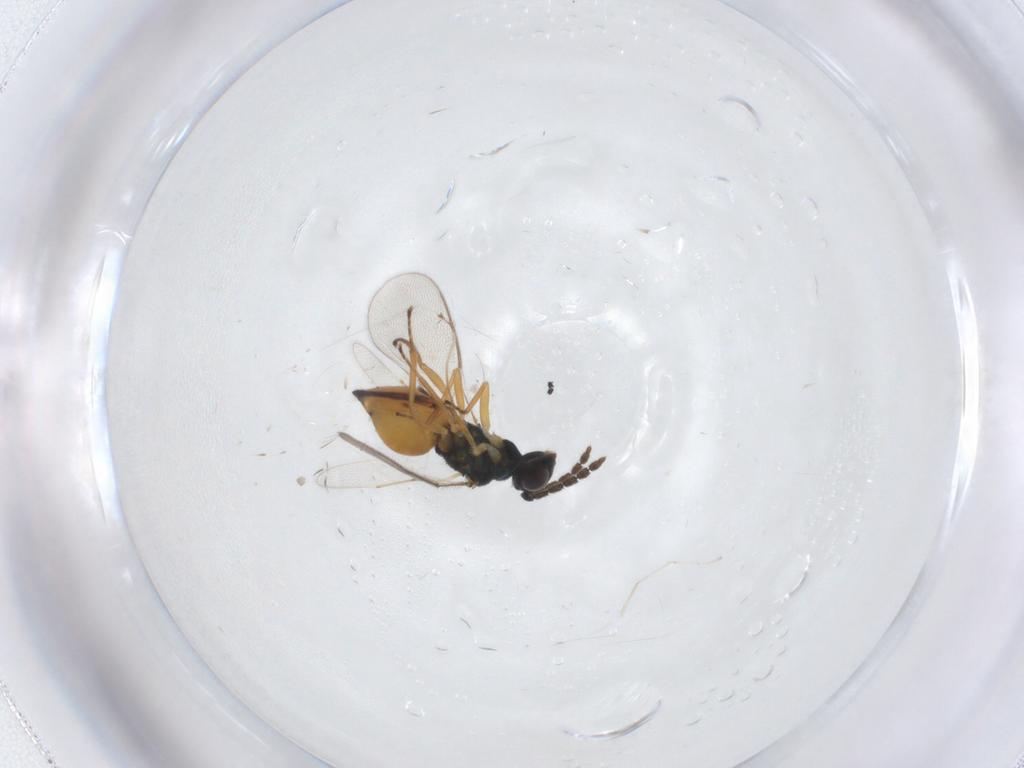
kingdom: Animalia
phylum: Arthropoda
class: Insecta
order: Hymenoptera
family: Eulophidae
